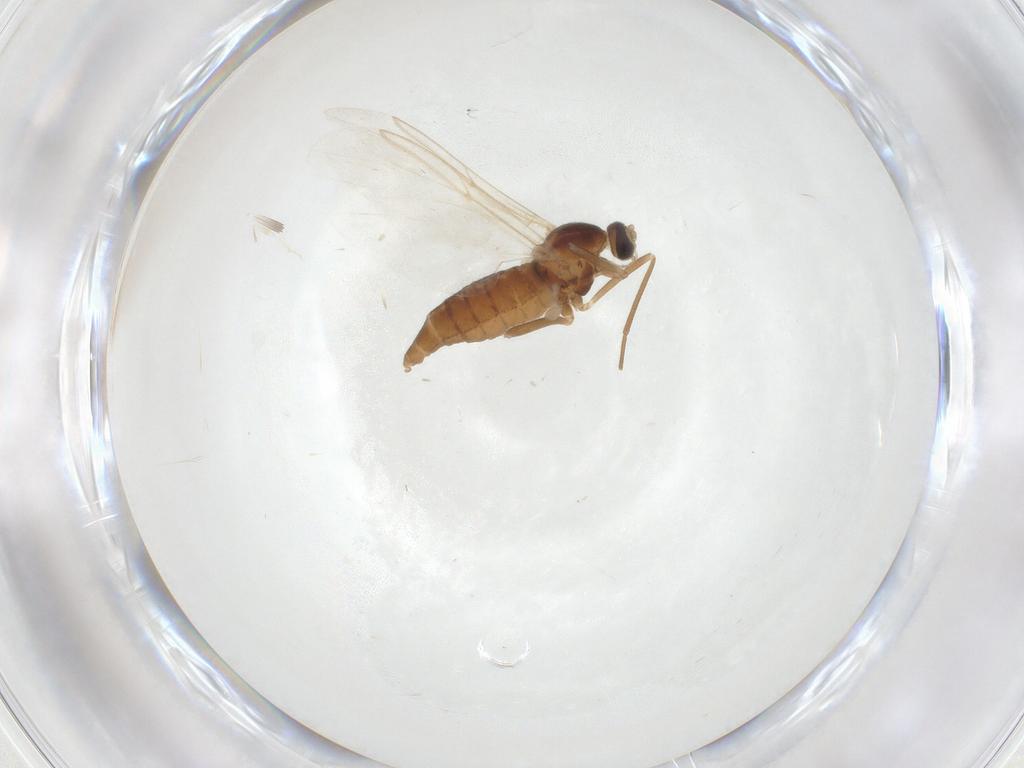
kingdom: Animalia
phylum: Arthropoda
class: Insecta
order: Diptera
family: Cecidomyiidae
